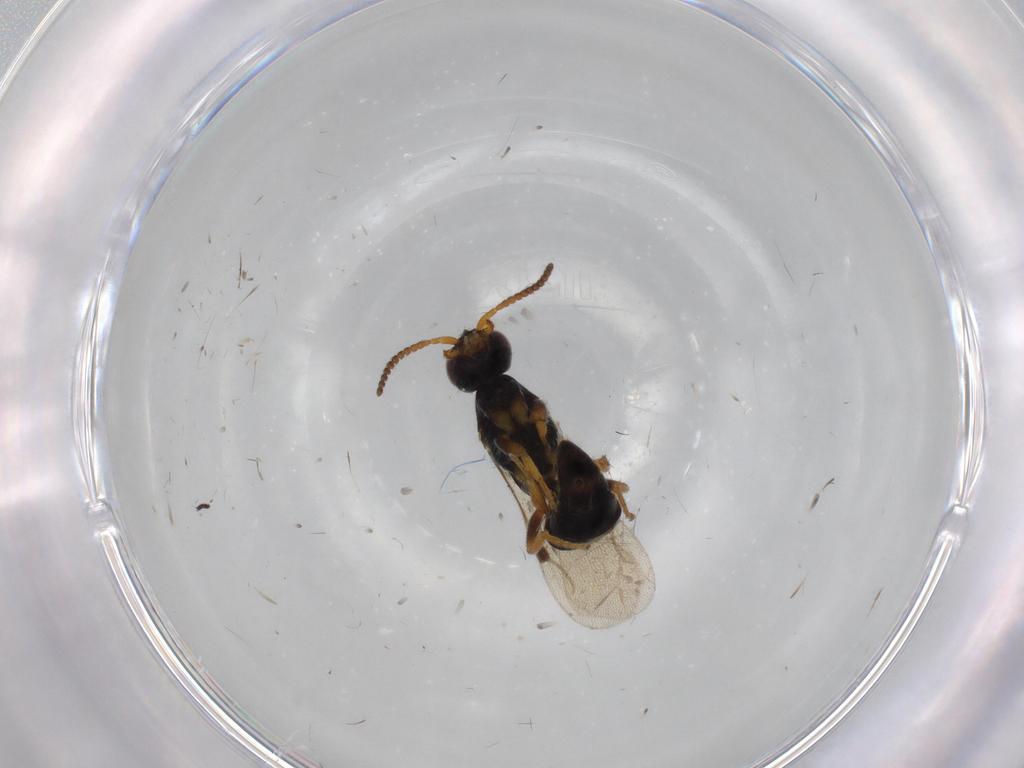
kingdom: Animalia
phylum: Arthropoda
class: Insecta
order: Hymenoptera
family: Bethylidae
